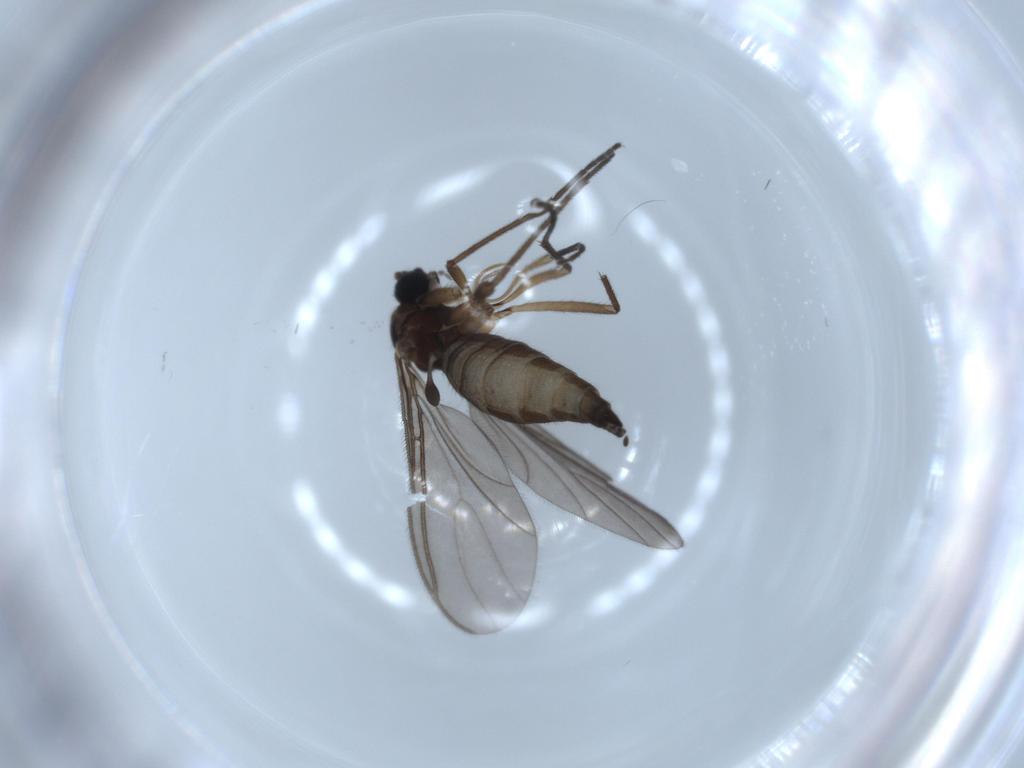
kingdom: Animalia
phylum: Arthropoda
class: Insecta
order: Diptera
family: Sciaridae
